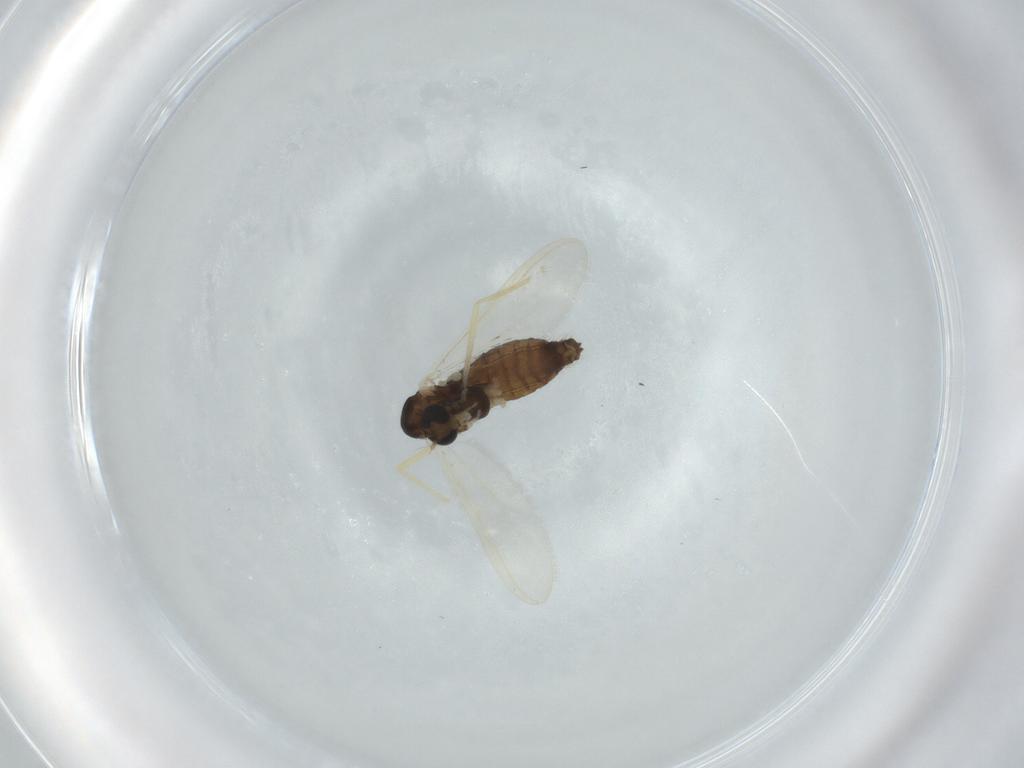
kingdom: Animalia
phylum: Arthropoda
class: Insecta
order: Diptera
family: Chironomidae
